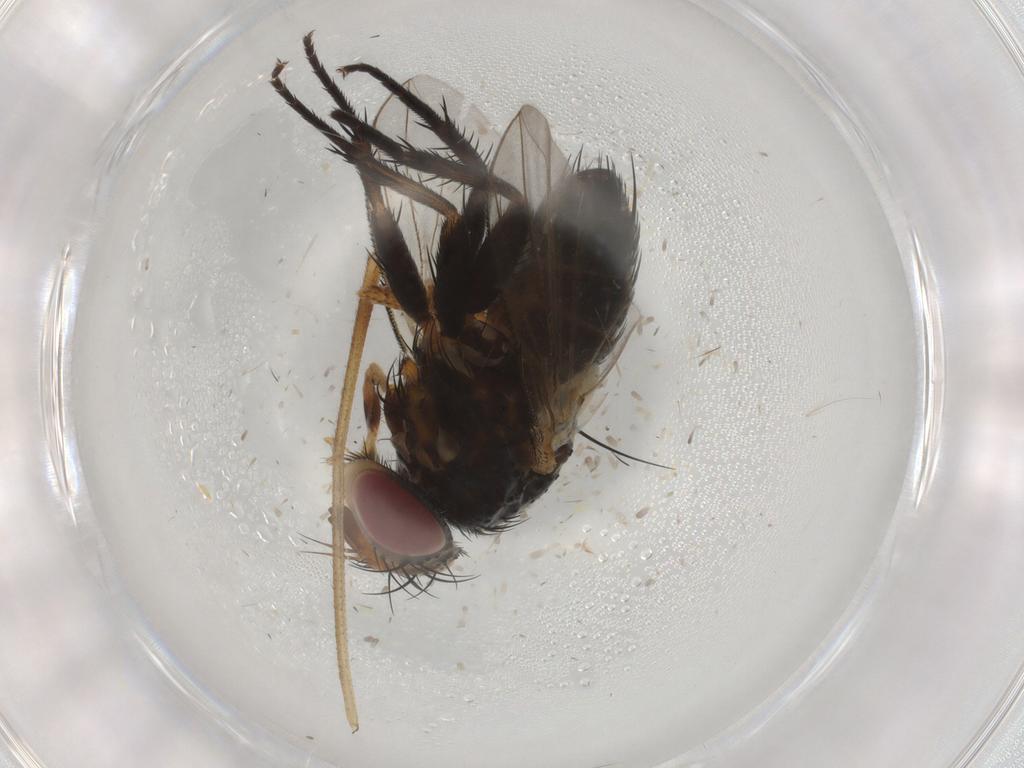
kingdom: Animalia
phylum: Arthropoda
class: Insecta
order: Diptera
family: Limoniidae
